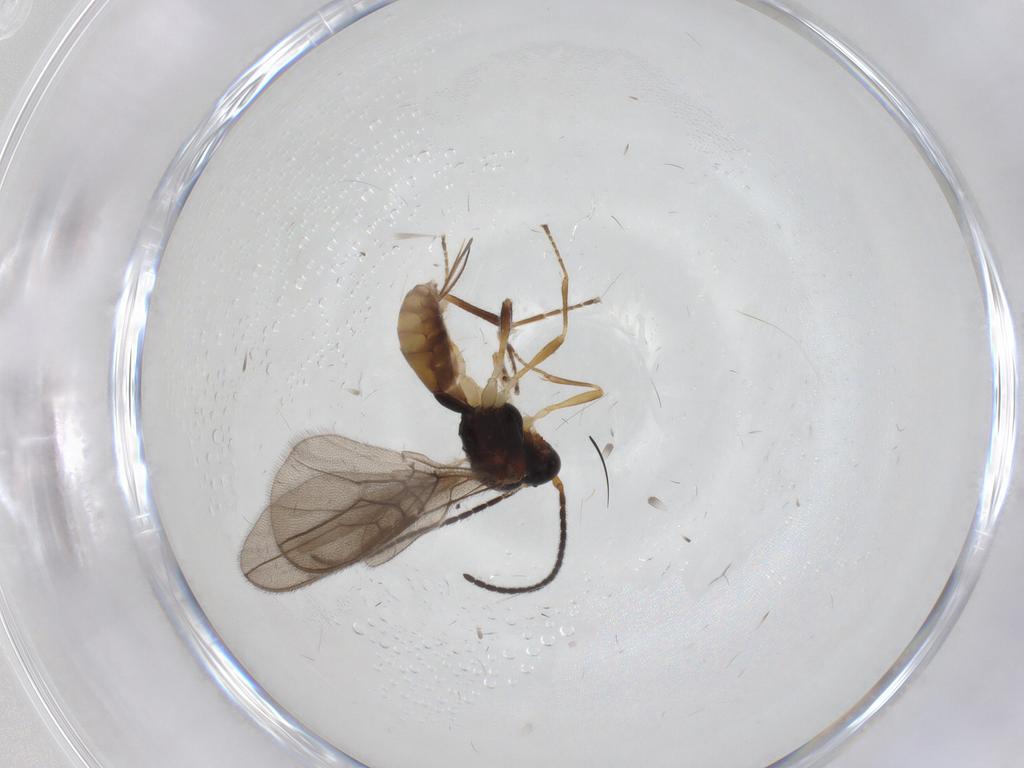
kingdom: Animalia
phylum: Arthropoda
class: Insecta
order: Hymenoptera
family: Braconidae
